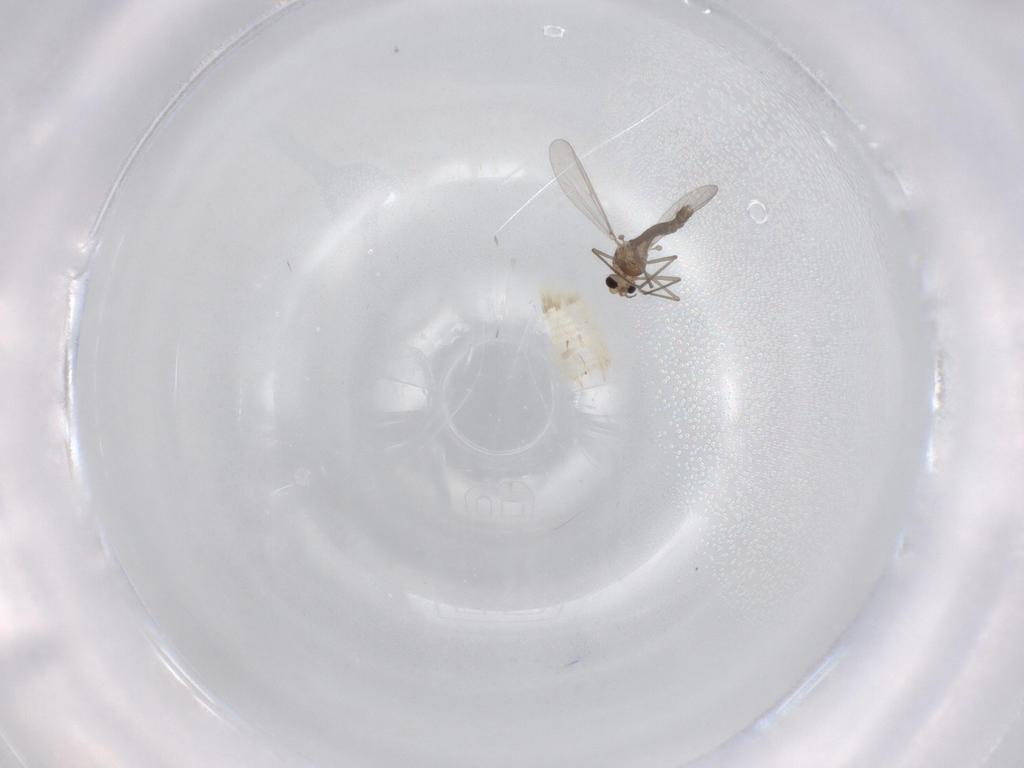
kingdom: Animalia
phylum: Arthropoda
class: Insecta
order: Diptera
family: Chironomidae
